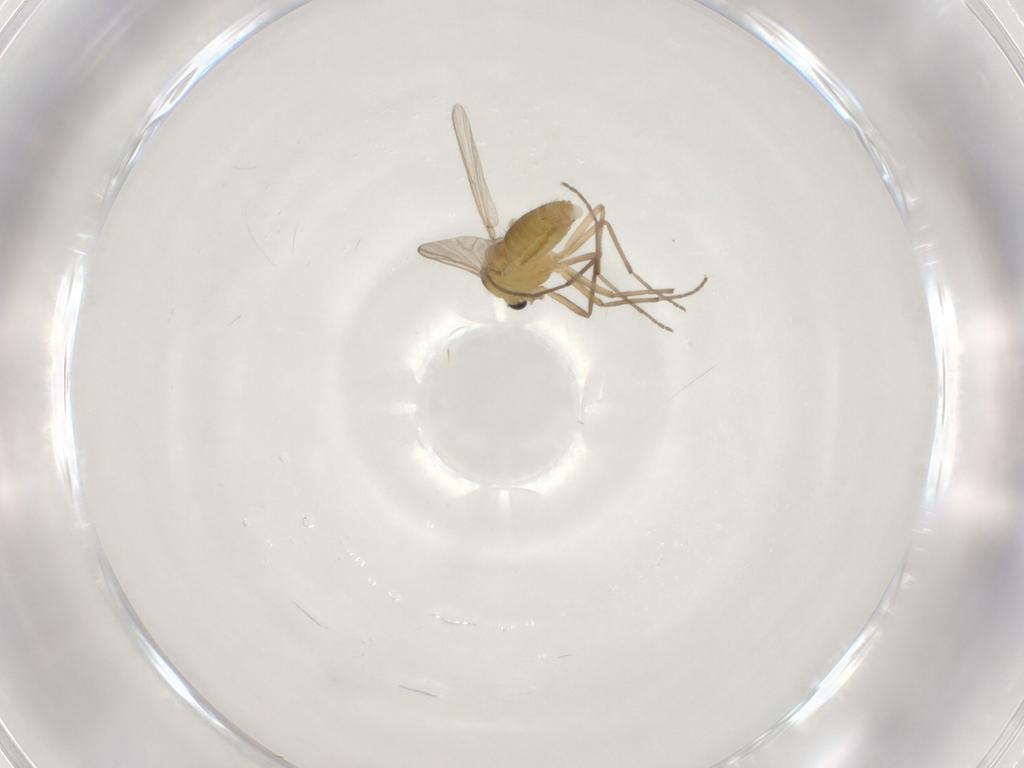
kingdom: Animalia
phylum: Arthropoda
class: Insecta
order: Diptera
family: Chironomidae
